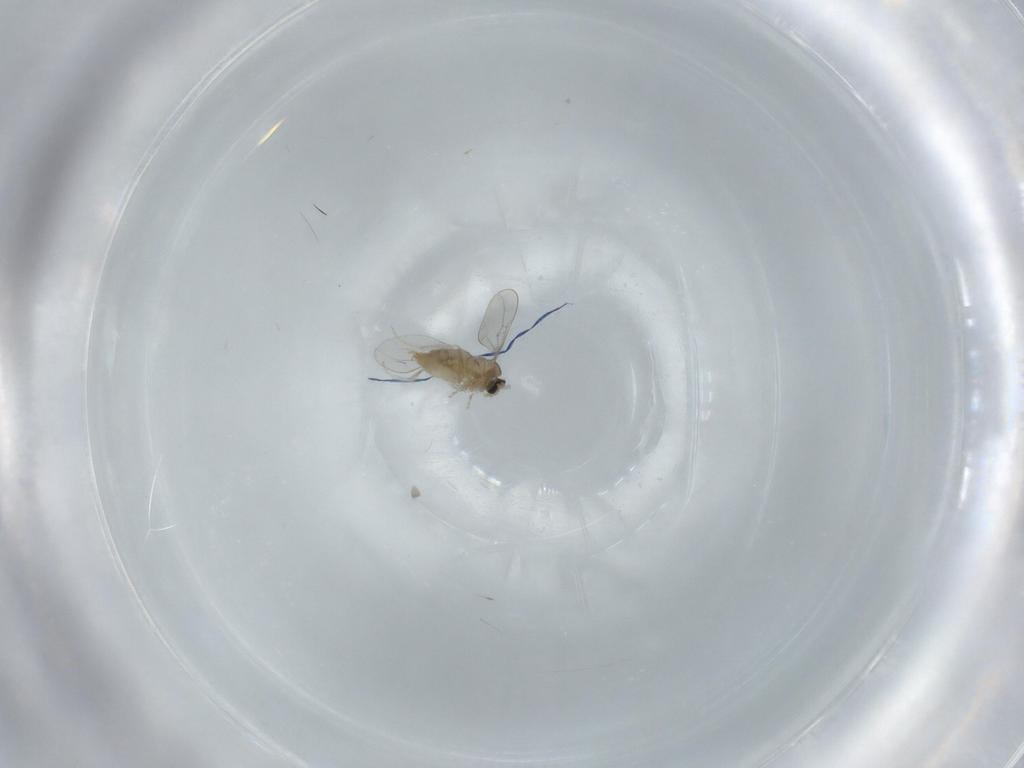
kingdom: Animalia
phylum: Arthropoda
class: Insecta
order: Diptera
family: Cecidomyiidae
